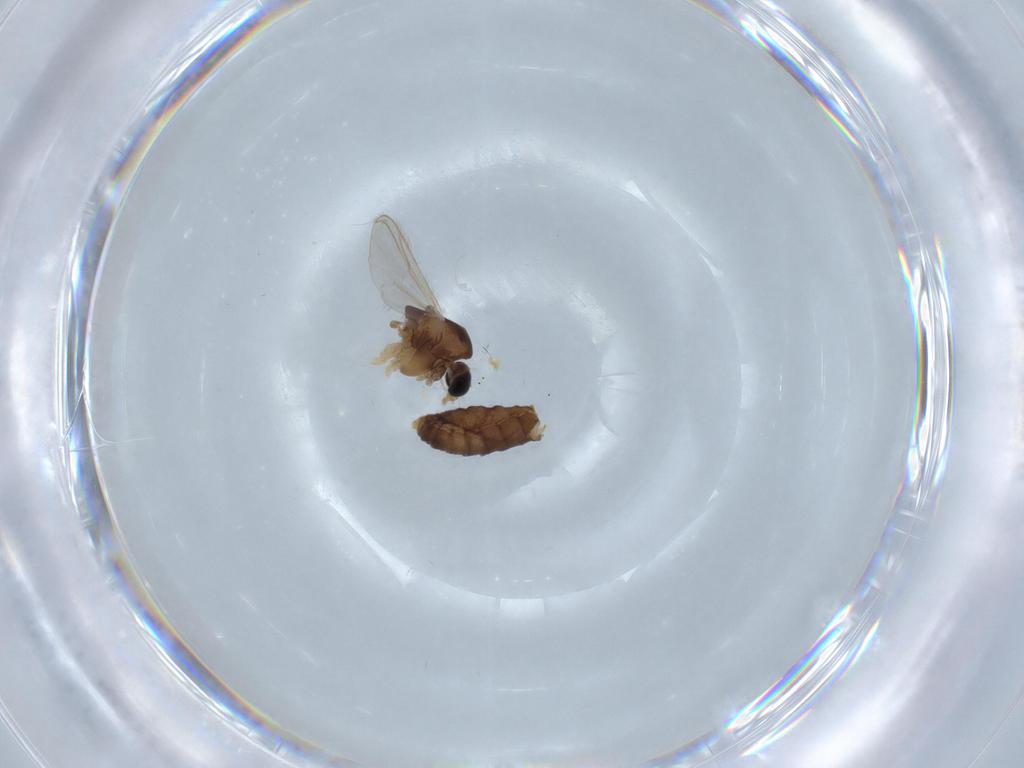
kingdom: Animalia
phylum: Arthropoda
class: Insecta
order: Diptera
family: Chironomidae
